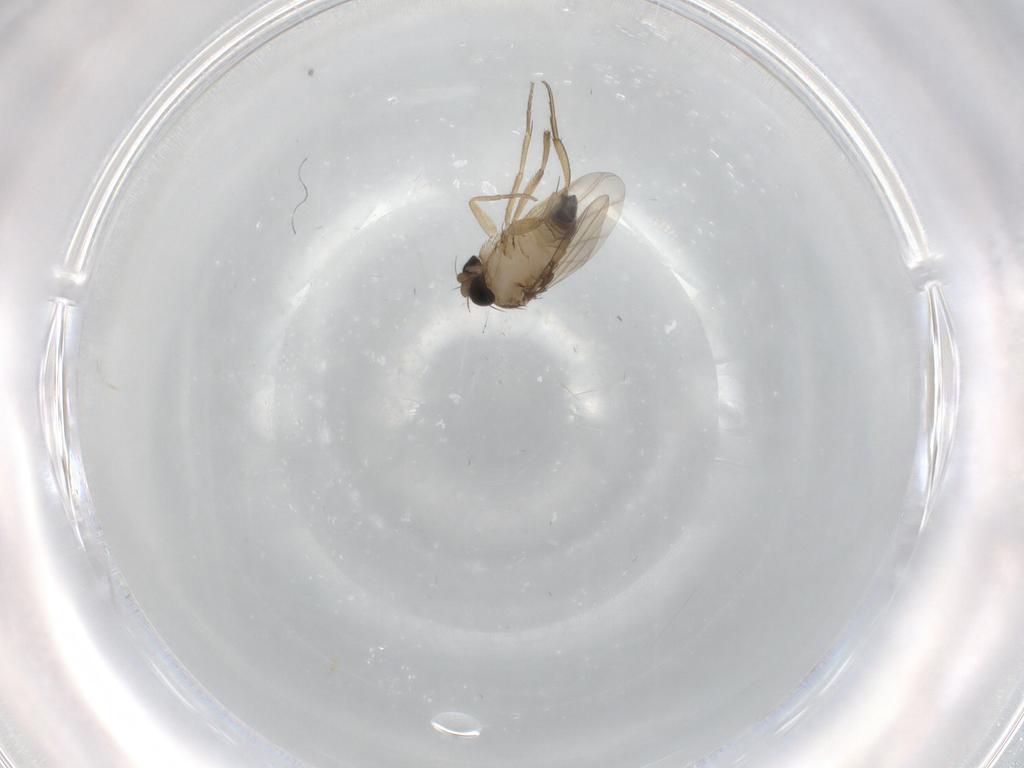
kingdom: Animalia
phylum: Arthropoda
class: Insecta
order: Diptera
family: Phoridae
